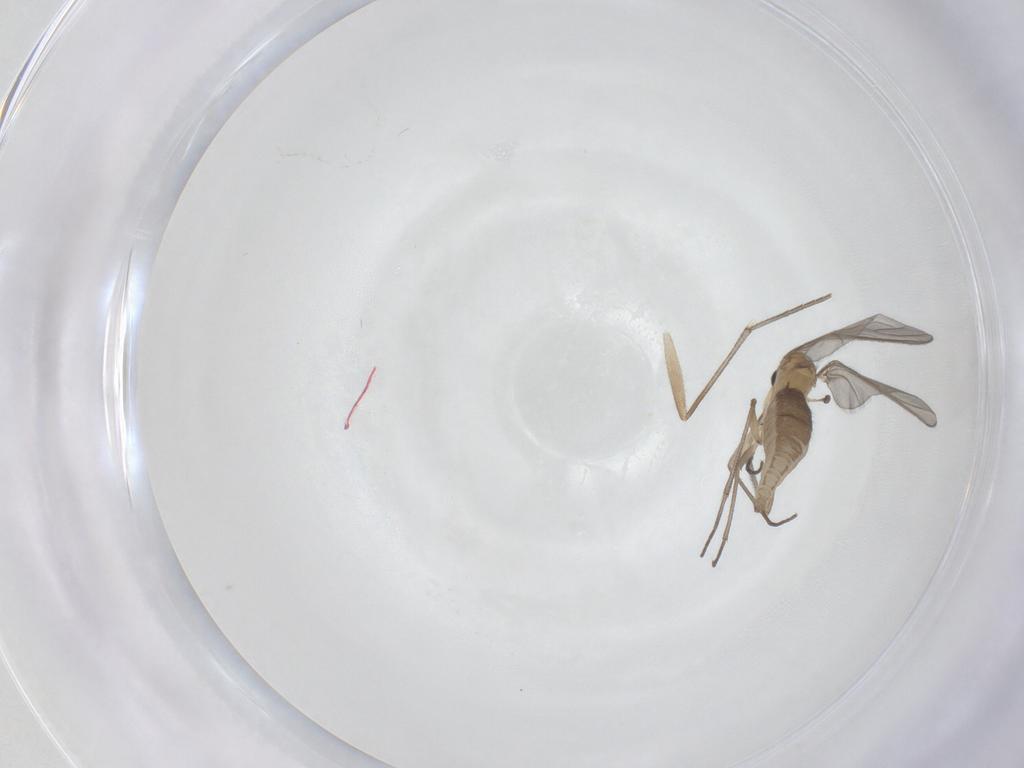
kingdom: Animalia
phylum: Arthropoda
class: Insecta
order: Diptera
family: Sciaridae
